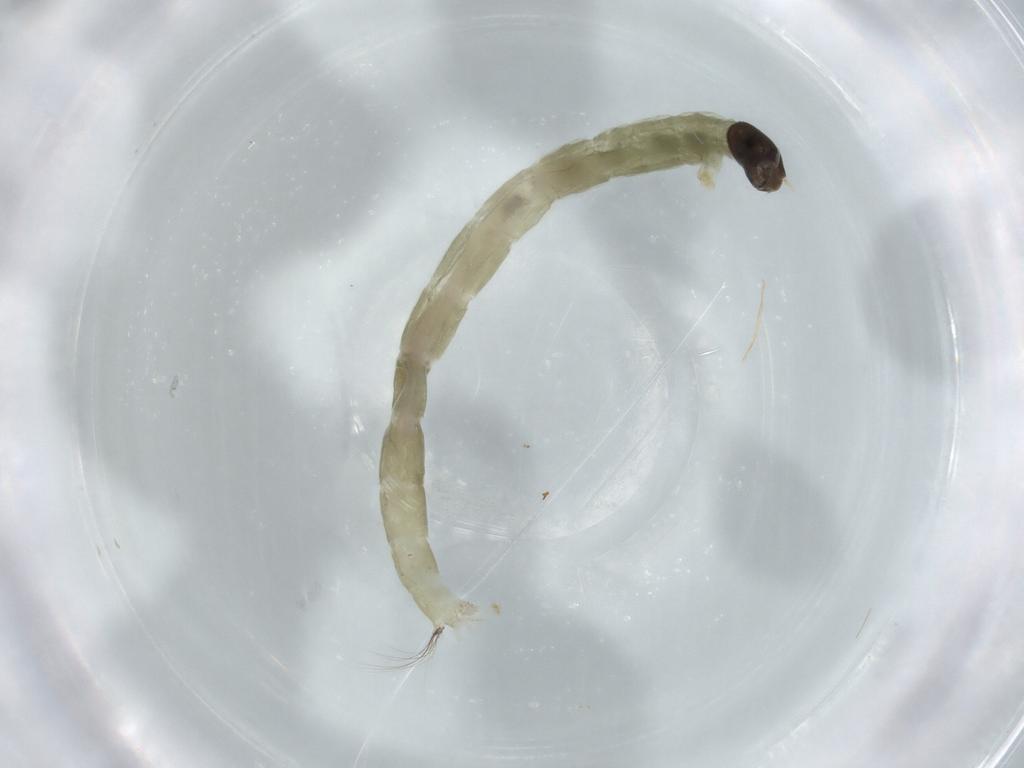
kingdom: Animalia
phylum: Arthropoda
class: Insecta
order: Diptera
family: Chironomidae
